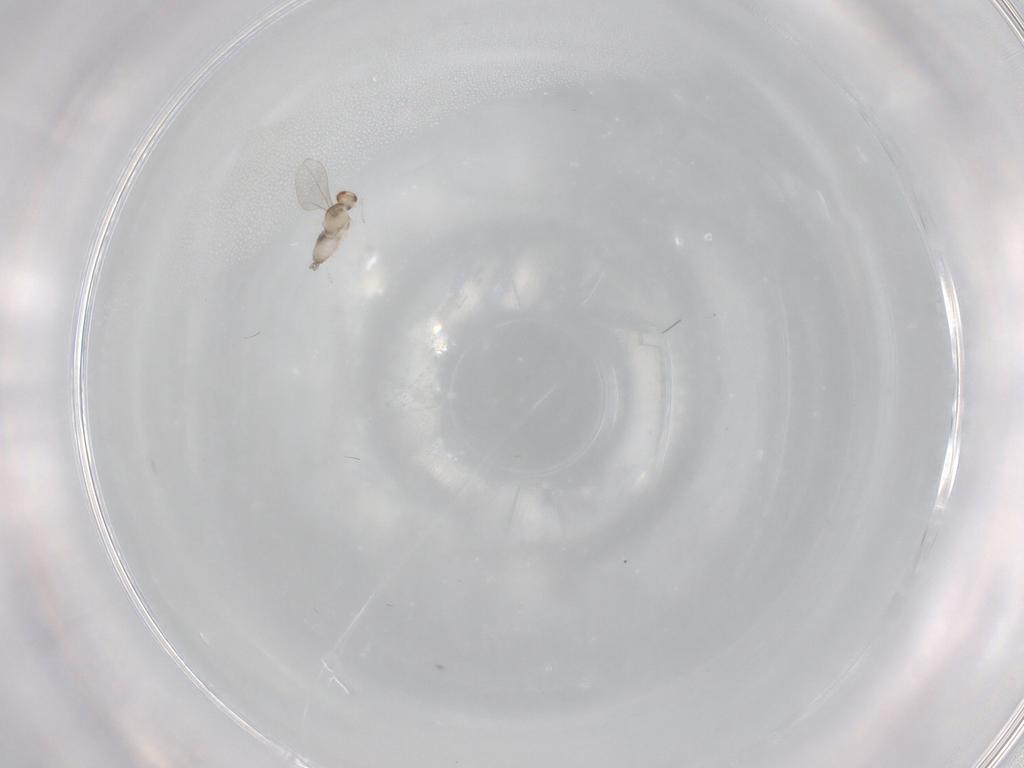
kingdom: Animalia
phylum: Arthropoda
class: Insecta
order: Diptera
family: Cecidomyiidae
